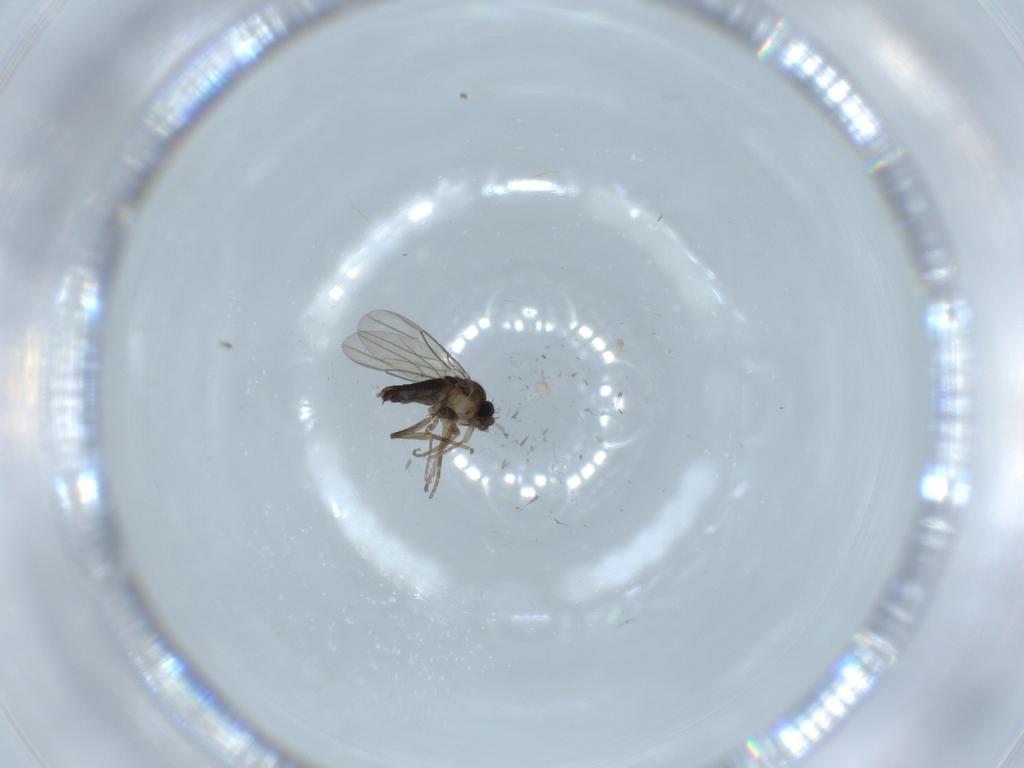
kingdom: Animalia
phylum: Arthropoda
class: Insecta
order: Diptera
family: Phoridae
